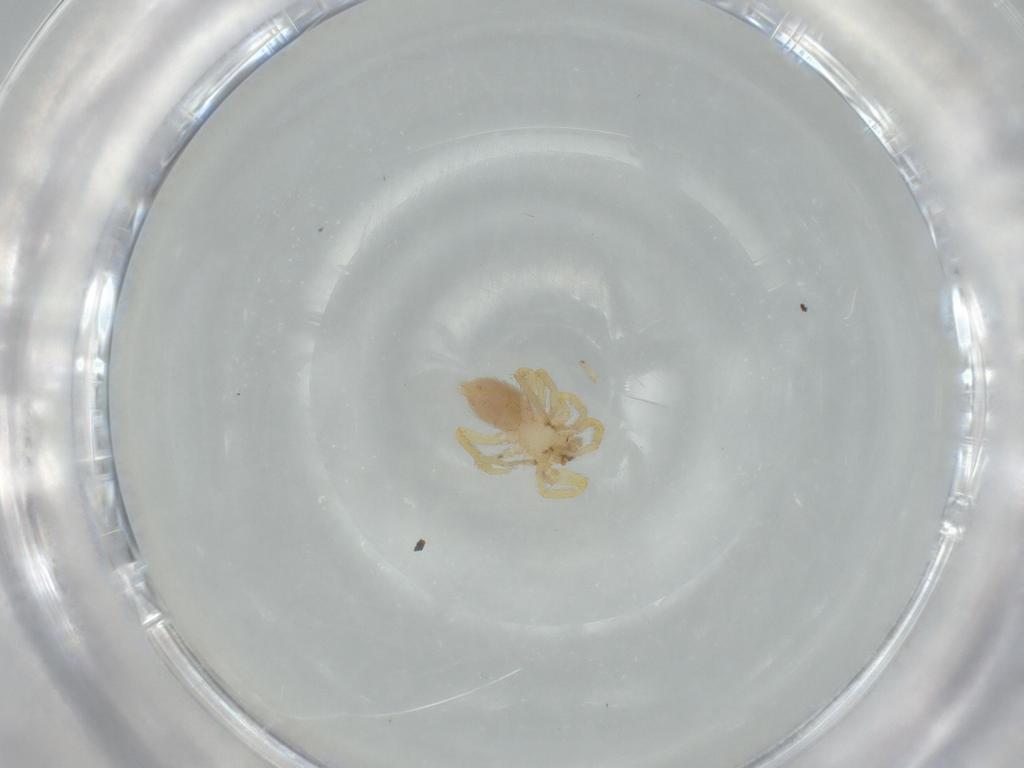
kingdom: Animalia
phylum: Arthropoda
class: Arachnida
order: Araneae
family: Oonopidae
